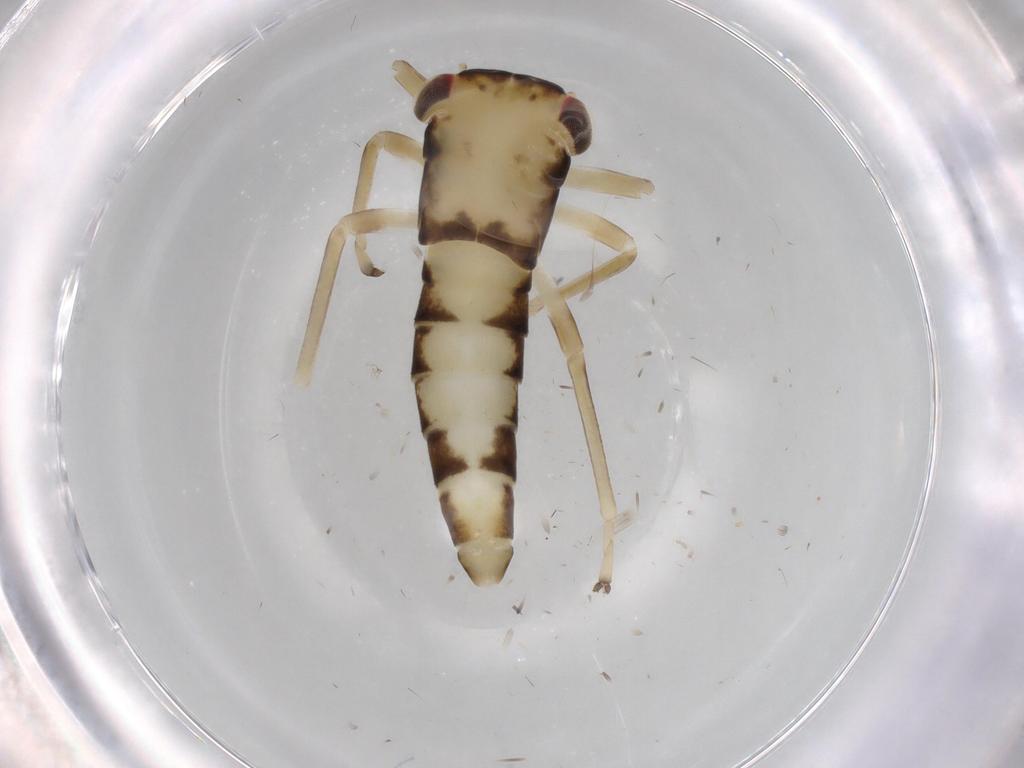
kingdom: Animalia
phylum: Arthropoda
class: Insecta
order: Hemiptera
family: Cicadellidae
